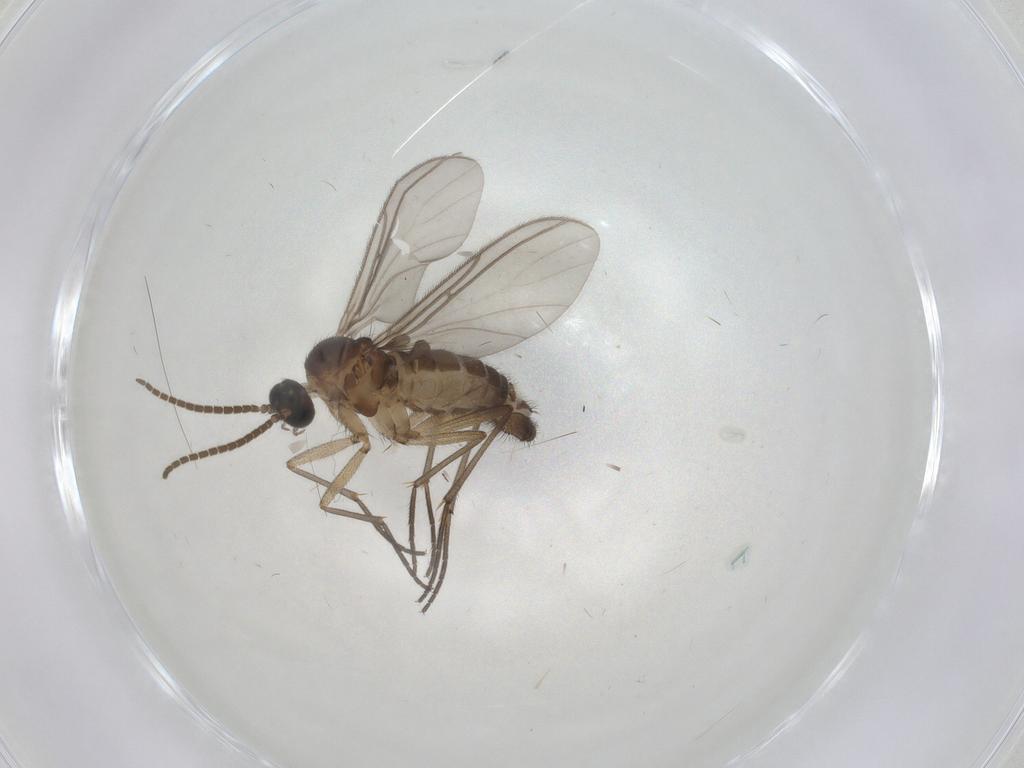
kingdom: Animalia
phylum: Arthropoda
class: Insecta
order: Diptera
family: Sciaridae
